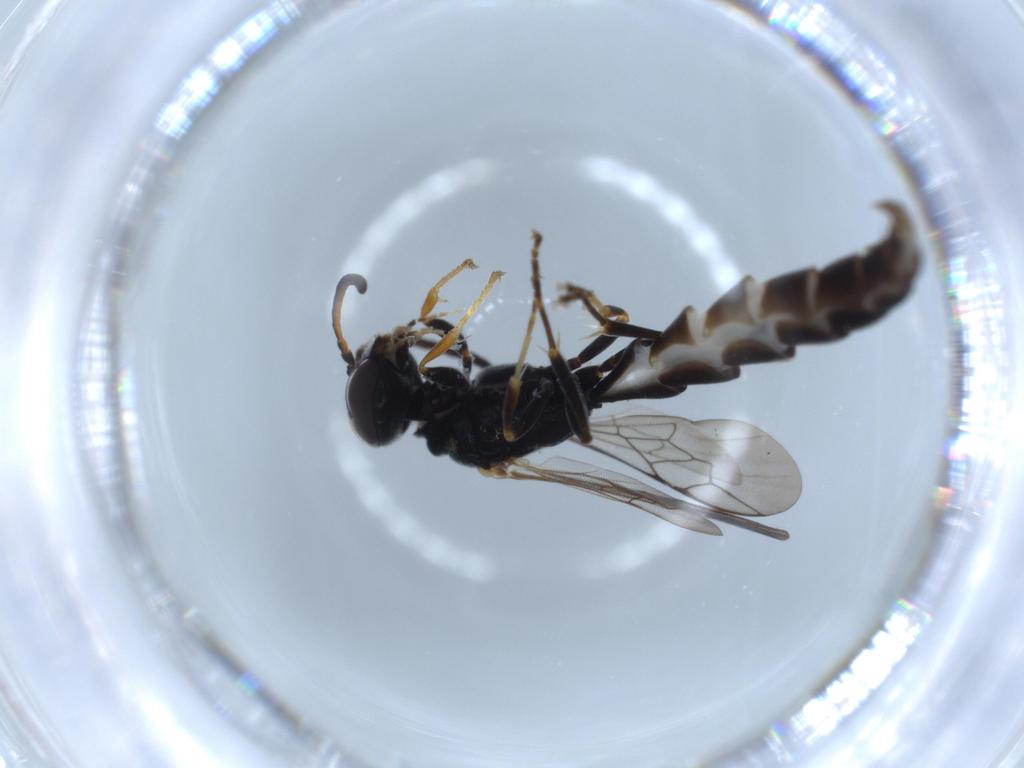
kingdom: Animalia
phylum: Arthropoda
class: Insecta
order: Hymenoptera
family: Crabronidae
